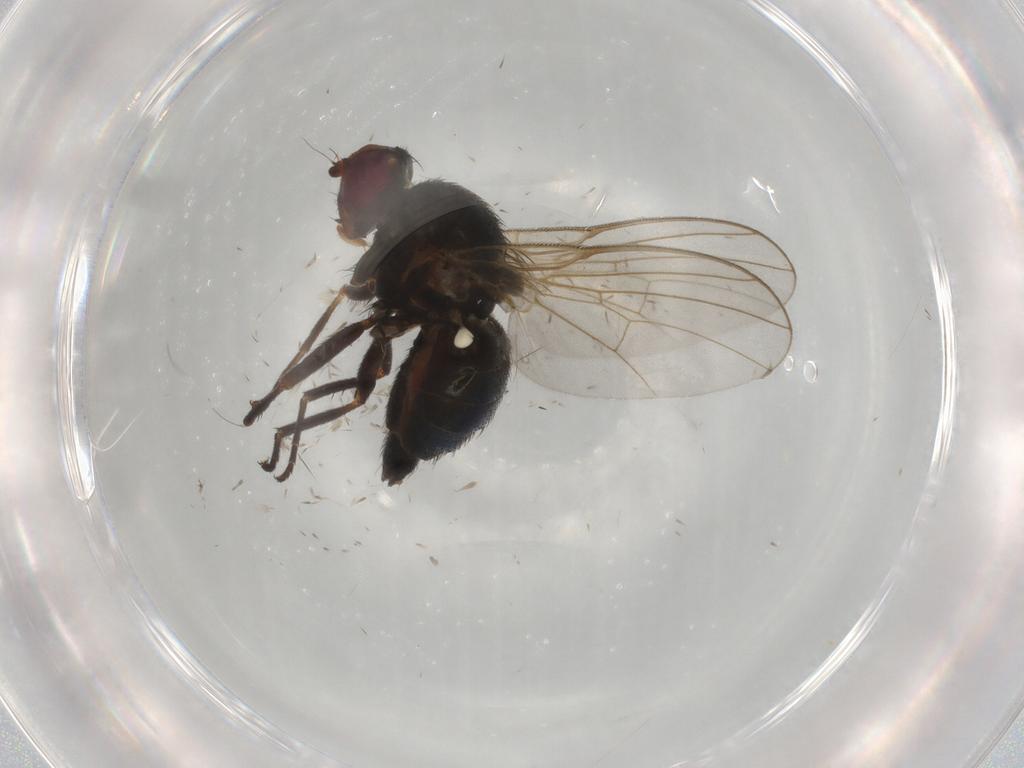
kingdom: Animalia
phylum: Arthropoda
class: Insecta
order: Diptera
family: Asilidae
